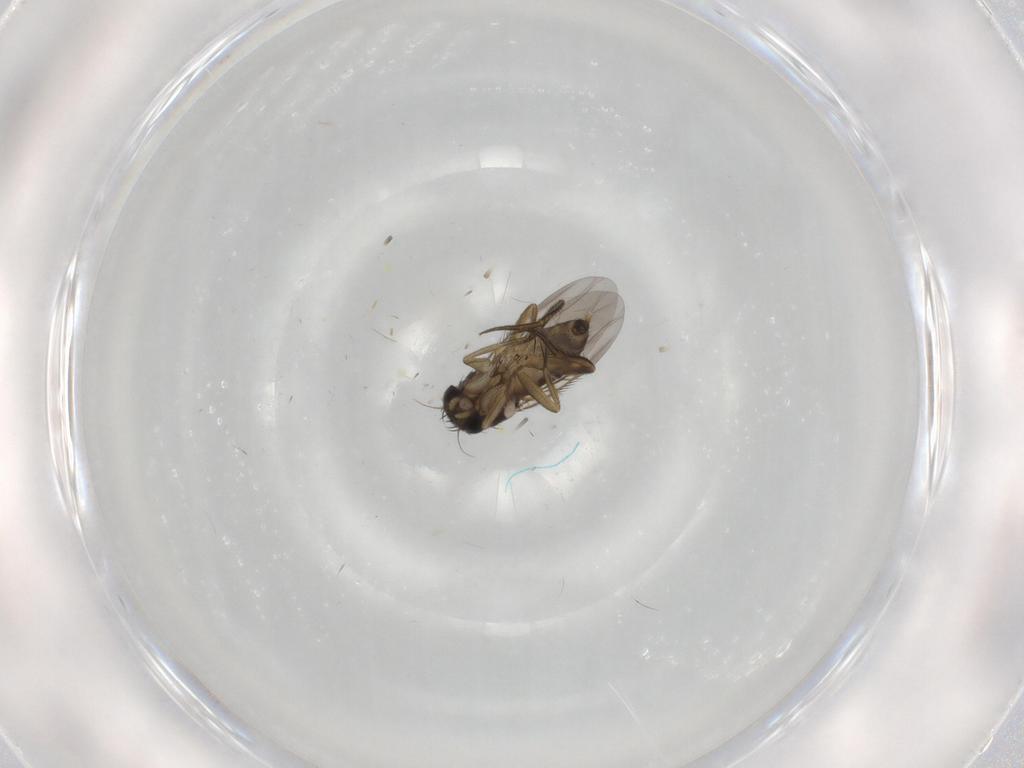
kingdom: Animalia
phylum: Arthropoda
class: Insecta
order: Diptera
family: Phoridae
